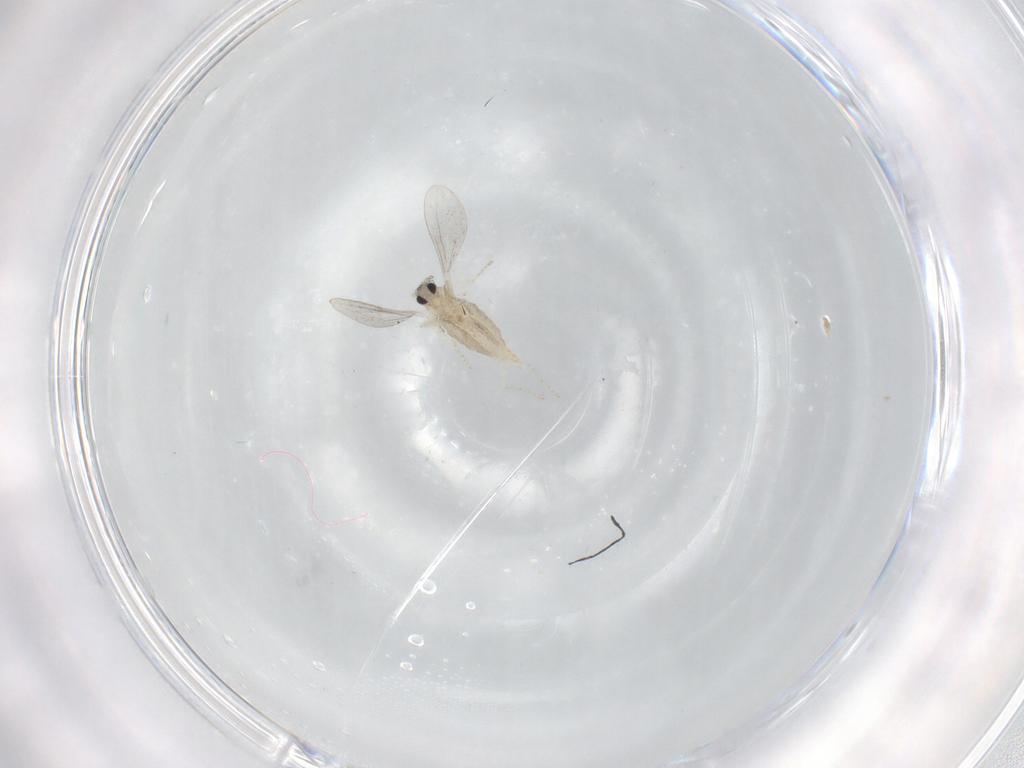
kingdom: Animalia
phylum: Arthropoda
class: Insecta
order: Diptera
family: Cecidomyiidae
